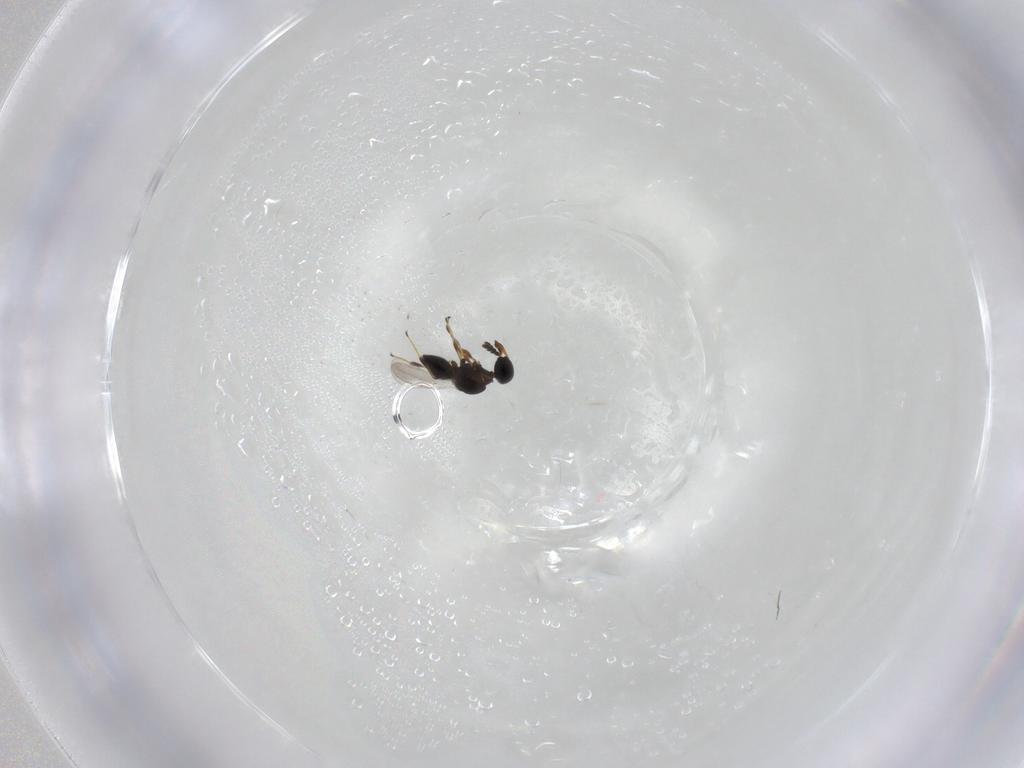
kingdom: Animalia
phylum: Arthropoda
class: Insecta
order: Hymenoptera
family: Platygastridae
